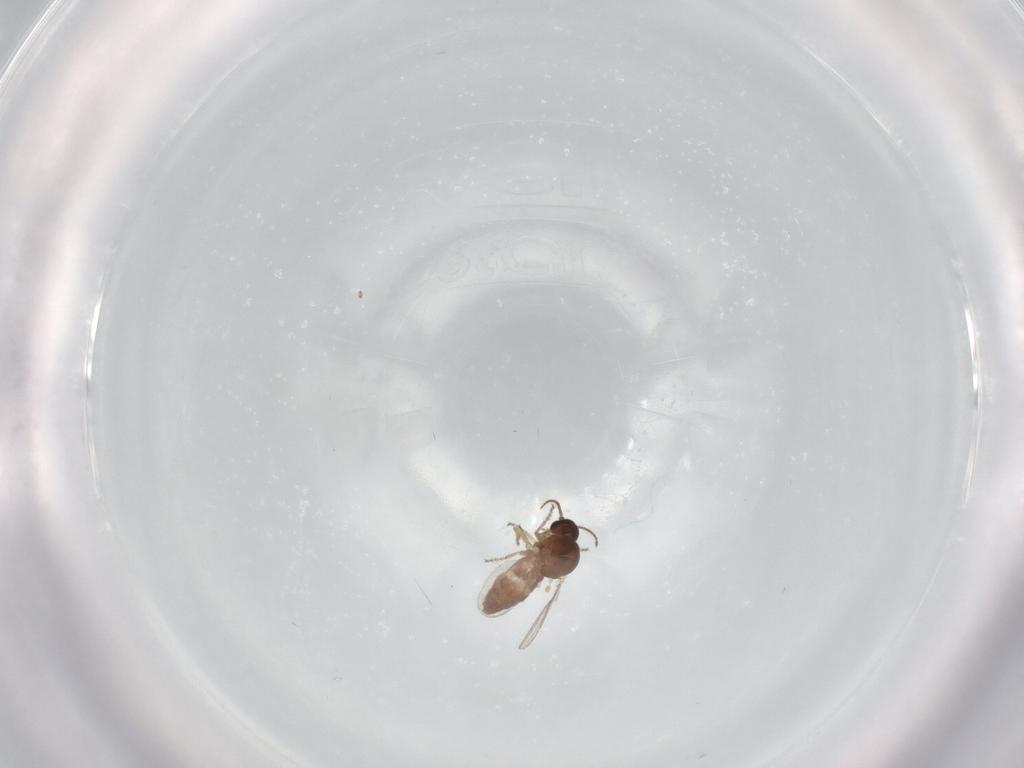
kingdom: Animalia
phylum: Arthropoda
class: Insecta
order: Diptera
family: Ceratopogonidae
